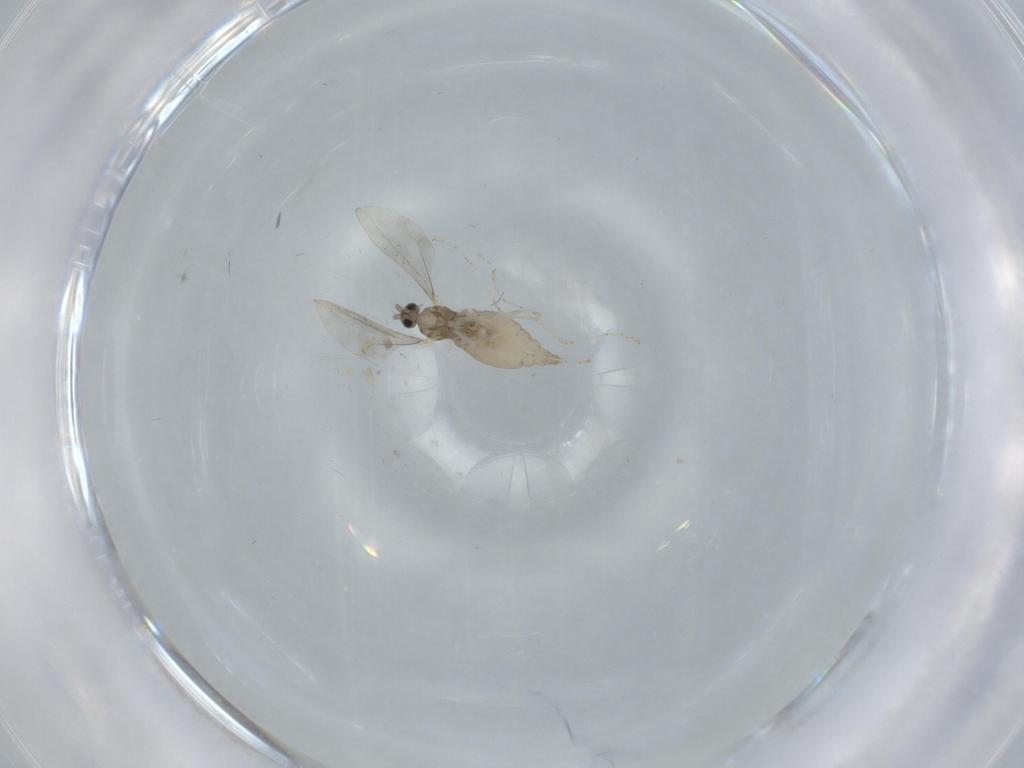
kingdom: Animalia
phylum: Arthropoda
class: Insecta
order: Diptera
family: Cecidomyiidae
